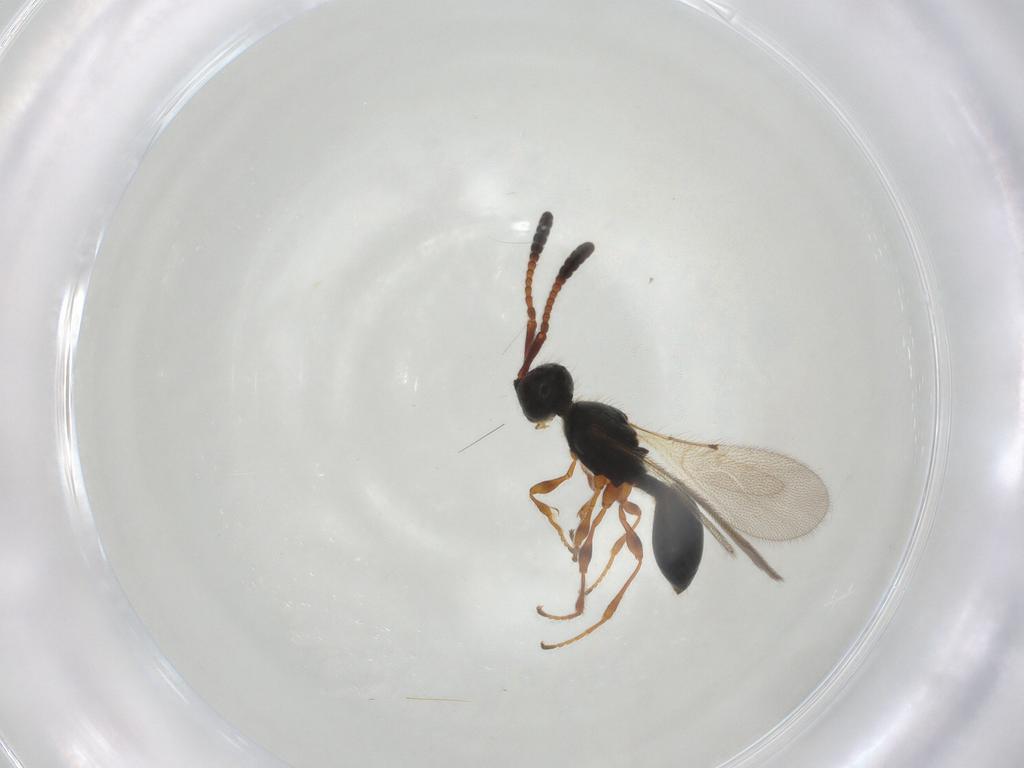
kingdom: Animalia
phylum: Arthropoda
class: Insecta
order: Hymenoptera
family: Diapriidae
